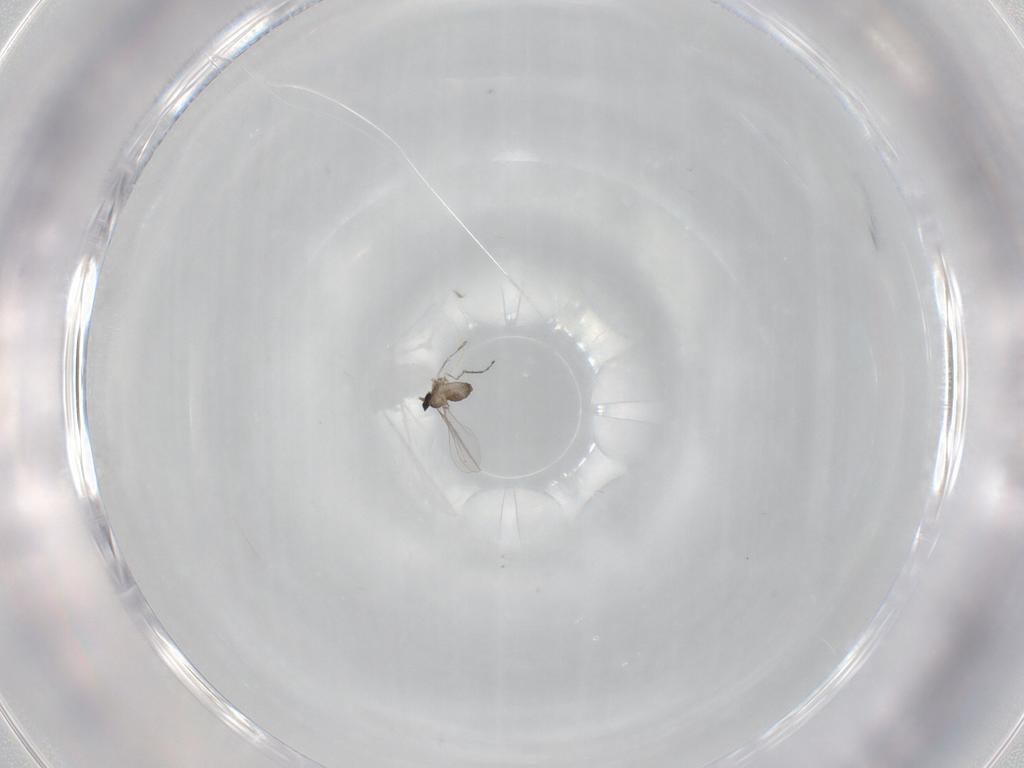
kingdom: Animalia
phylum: Arthropoda
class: Insecta
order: Diptera
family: Cecidomyiidae
